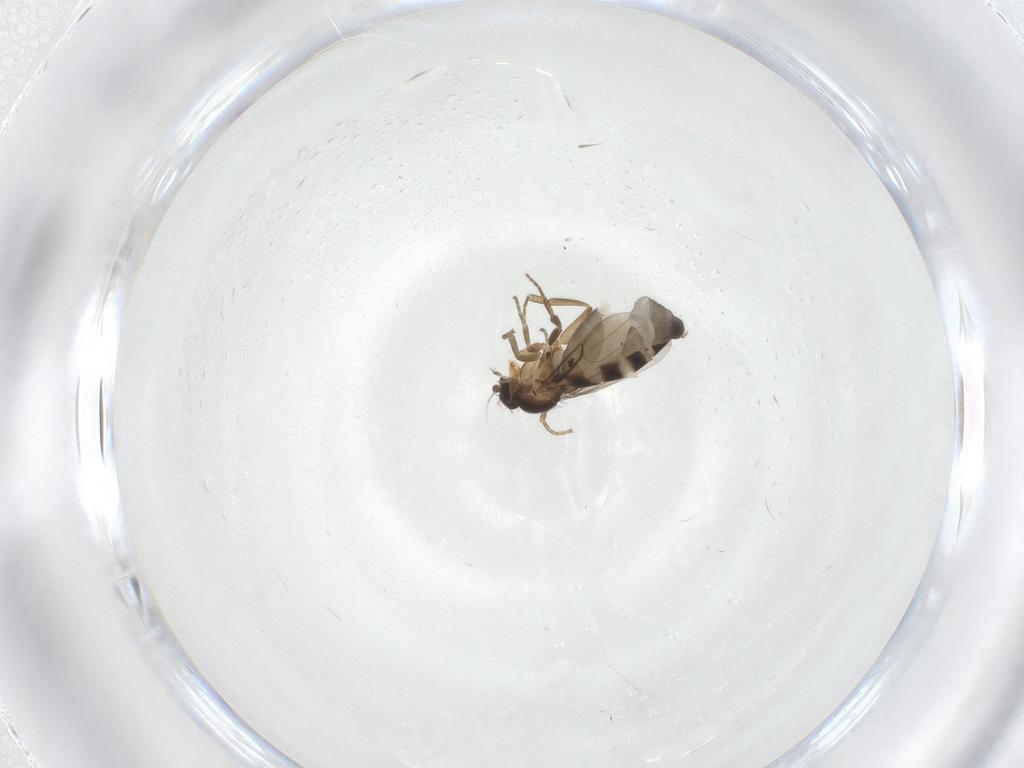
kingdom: Animalia
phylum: Arthropoda
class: Insecta
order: Diptera
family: Phoridae
